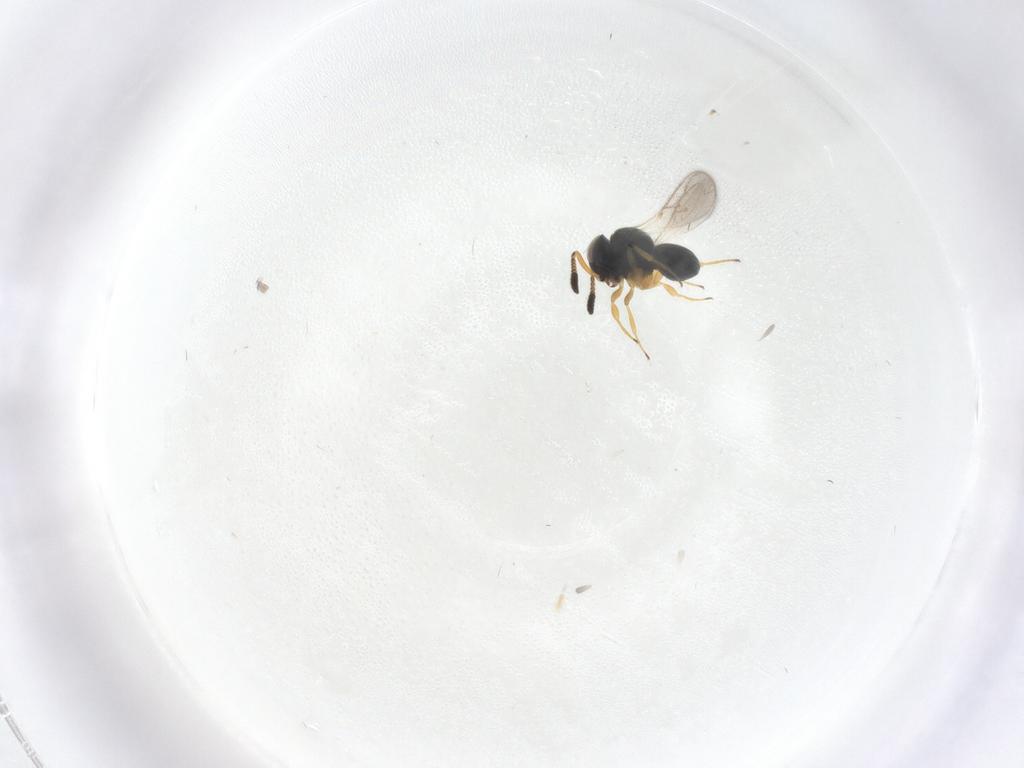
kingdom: Animalia
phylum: Arthropoda
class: Insecta
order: Hymenoptera
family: Scelionidae
